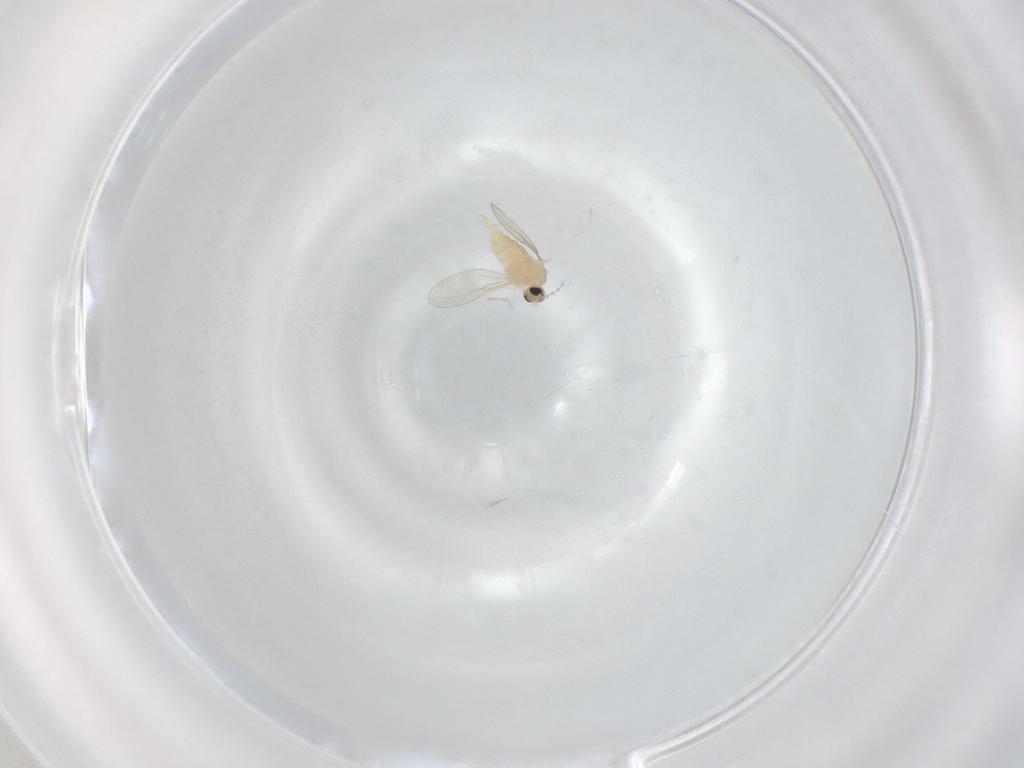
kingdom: Animalia
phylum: Arthropoda
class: Insecta
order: Diptera
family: Cecidomyiidae
